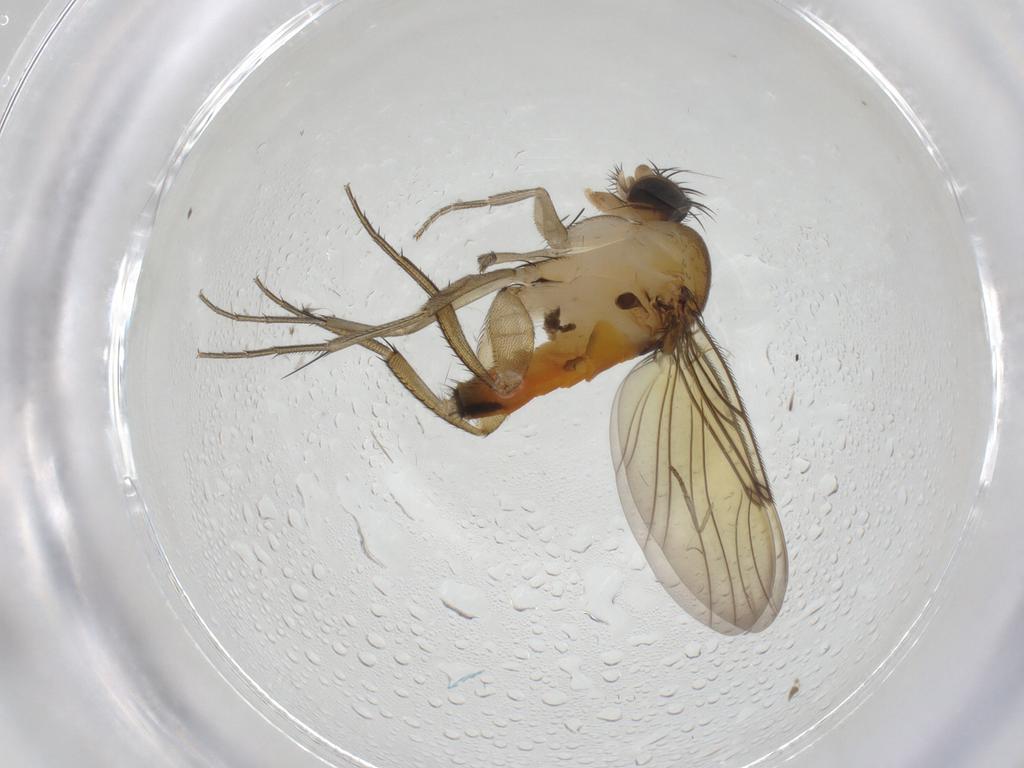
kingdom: Animalia
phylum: Arthropoda
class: Insecta
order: Diptera
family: Psychodidae
